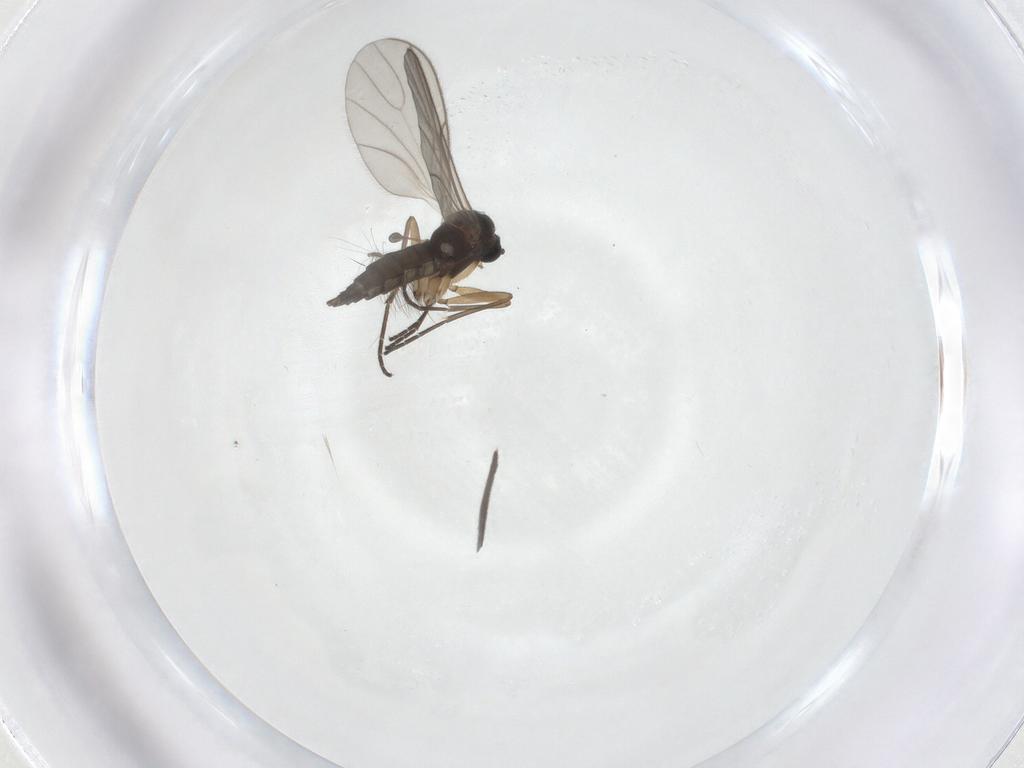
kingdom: Animalia
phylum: Arthropoda
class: Insecta
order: Diptera
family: Sciaridae
